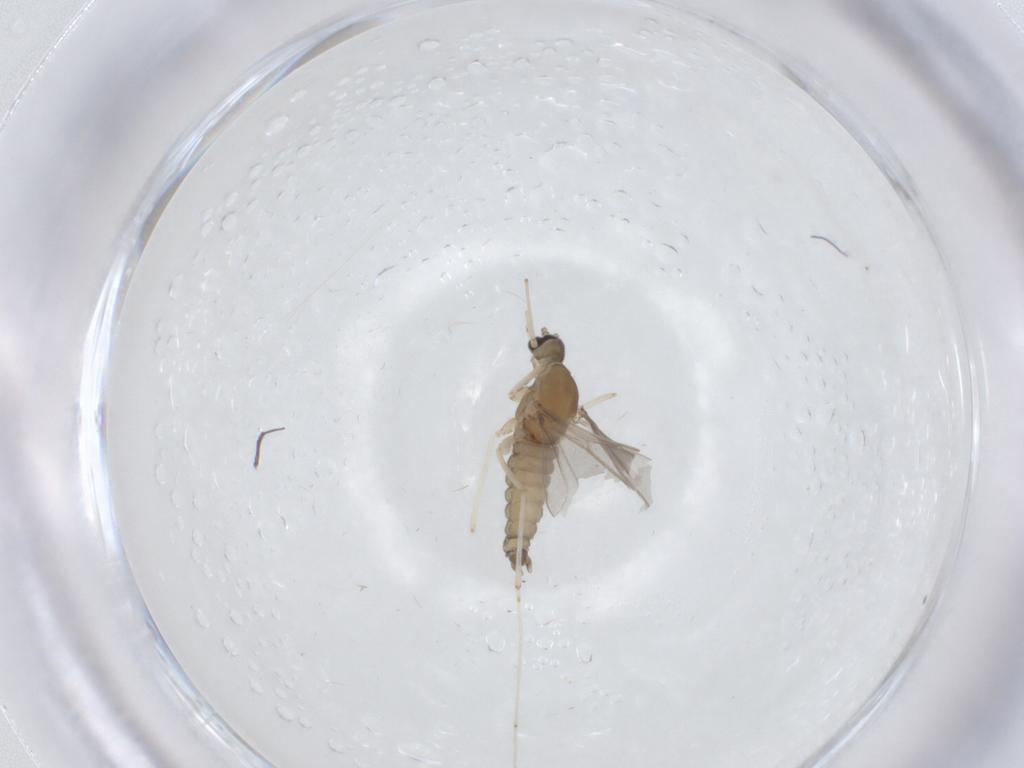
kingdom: Animalia
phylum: Arthropoda
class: Insecta
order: Diptera
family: Cecidomyiidae
